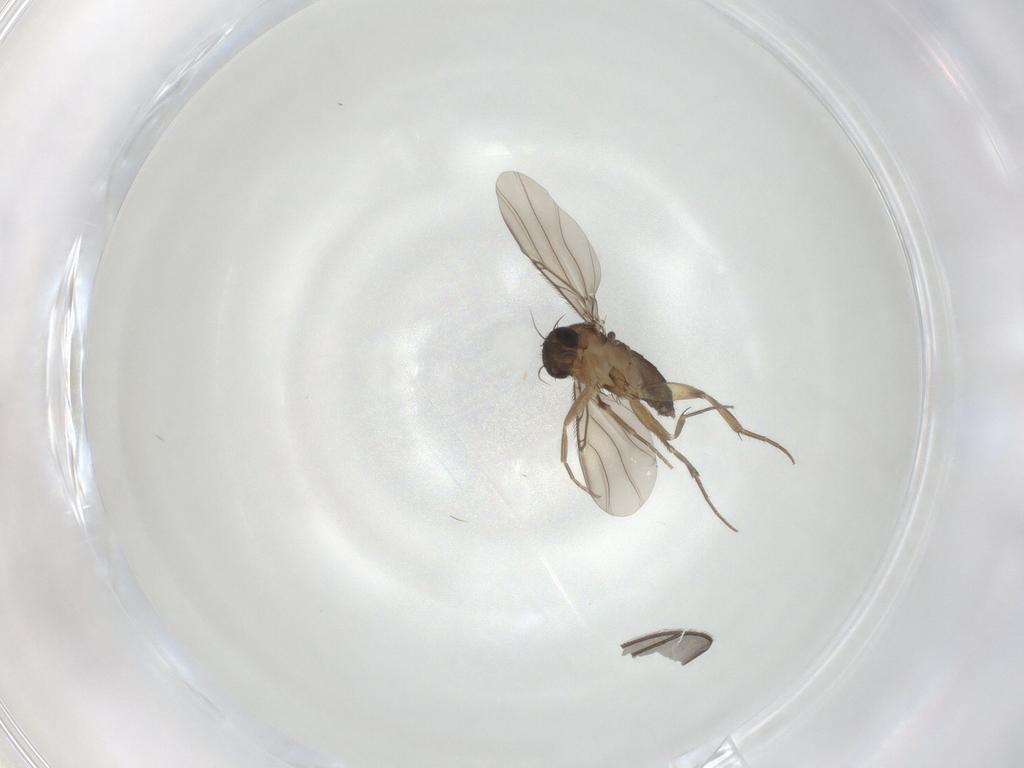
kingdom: Animalia
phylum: Arthropoda
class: Insecta
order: Diptera
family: Phoridae
